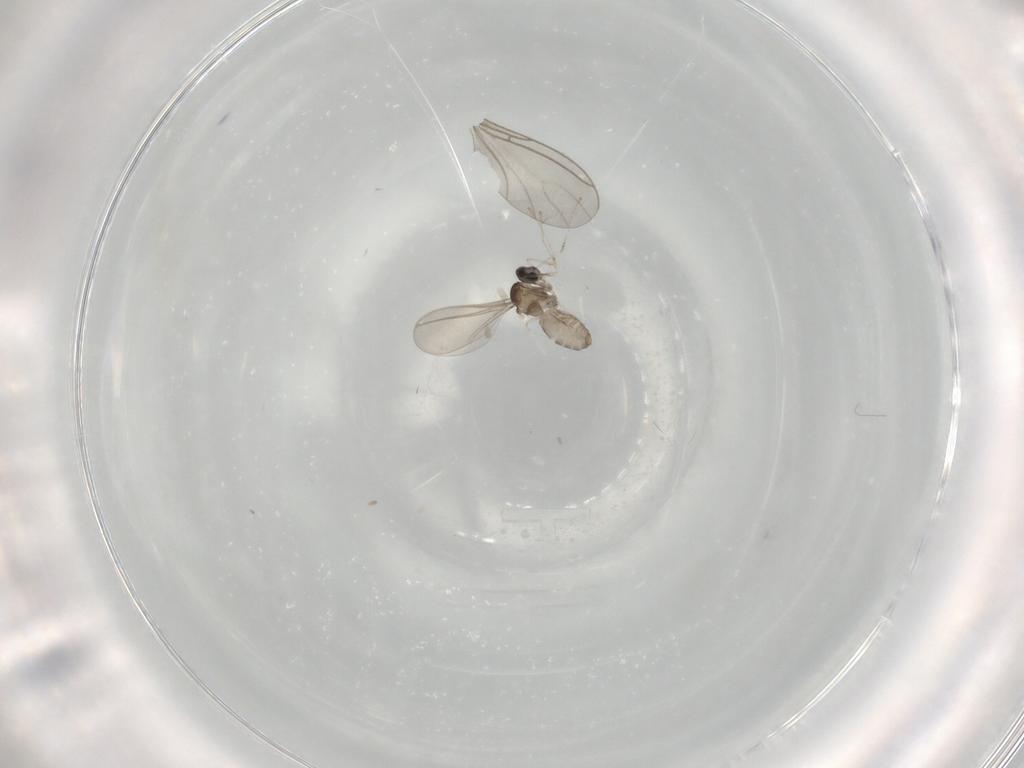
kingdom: Animalia
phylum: Arthropoda
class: Insecta
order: Diptera
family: Cecidomyiidae
